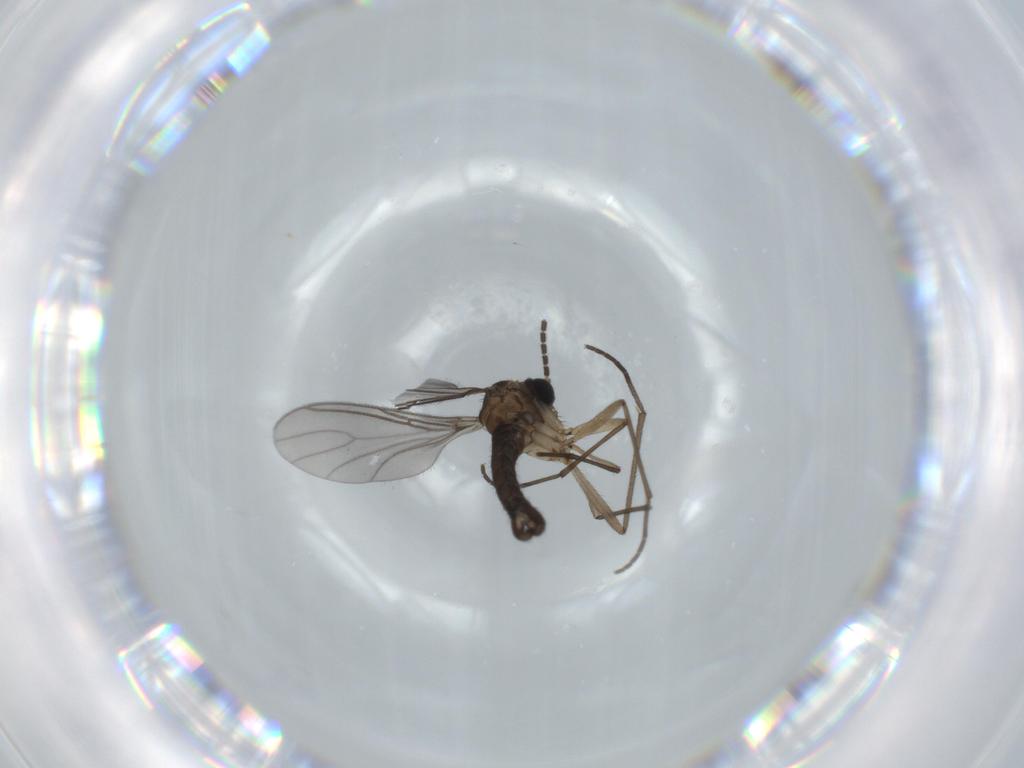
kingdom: Animalia
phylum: Arthropoda
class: Insecta
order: Diptera
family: Sciaridae
